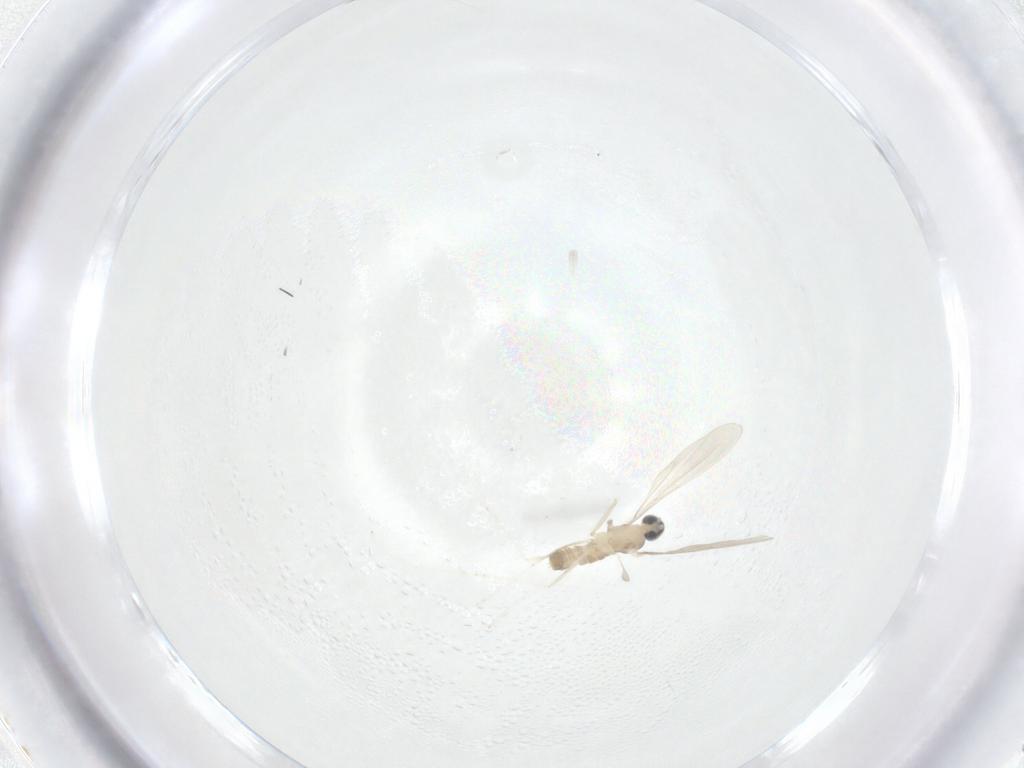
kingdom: Animalia
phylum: Arthropoda
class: Insecta
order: Diptera
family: Cecidomyiidae
